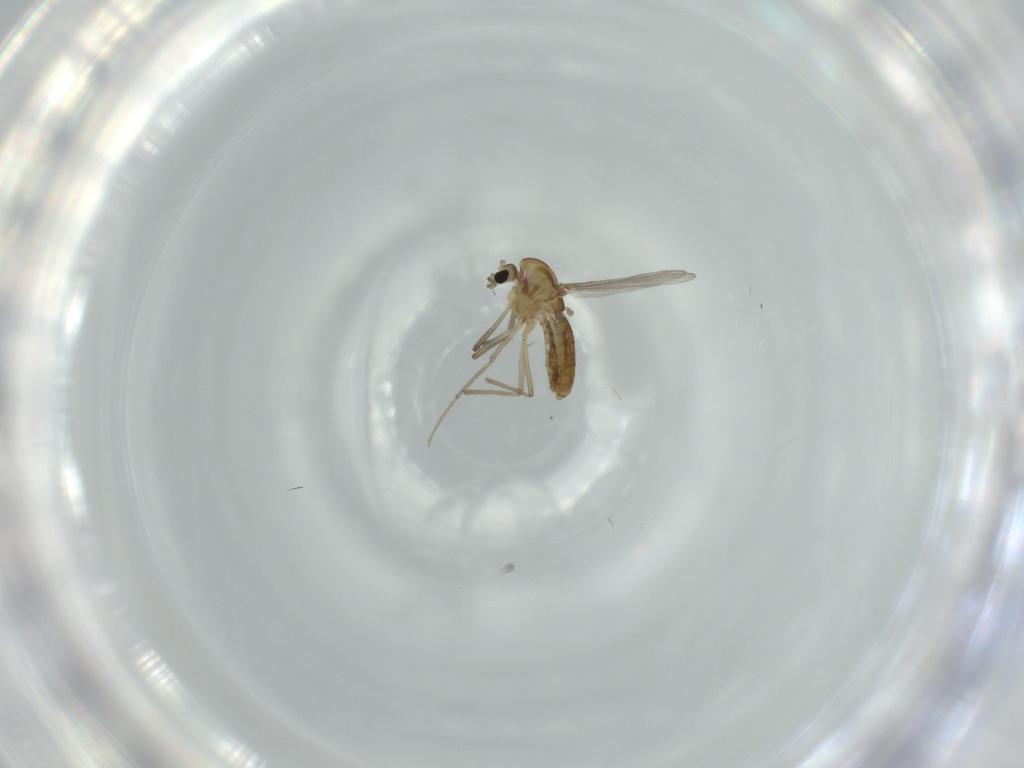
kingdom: Animalia
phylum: Arthropoda
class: Insecta
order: Diptera
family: Chironomidae
